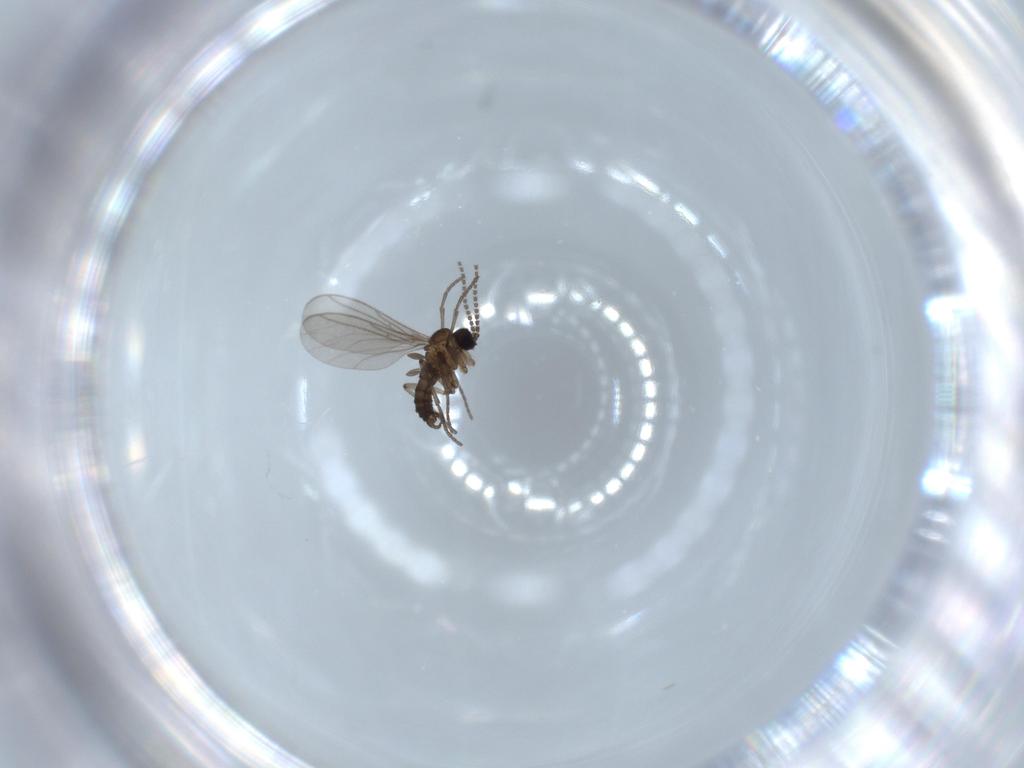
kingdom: Animalia
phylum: Arthropoda
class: Insecta
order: Diptera
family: Sciaridae
